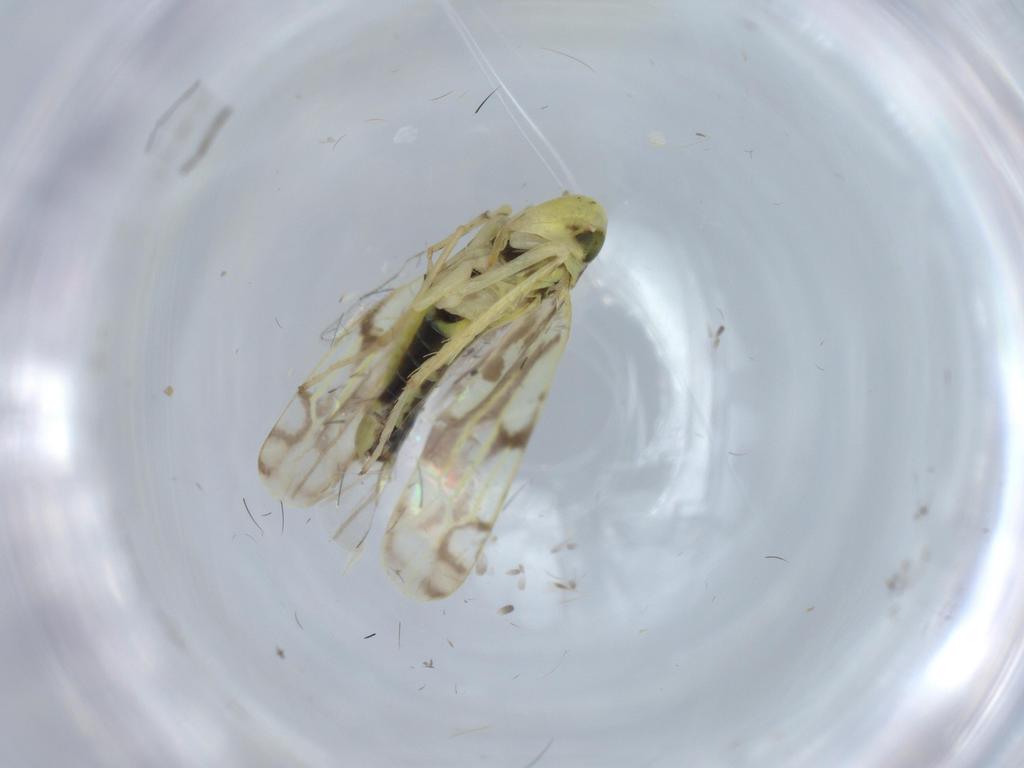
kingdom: Animalia
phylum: Arthropoda
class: Insecta
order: Hemiptera
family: Cicadellidae
